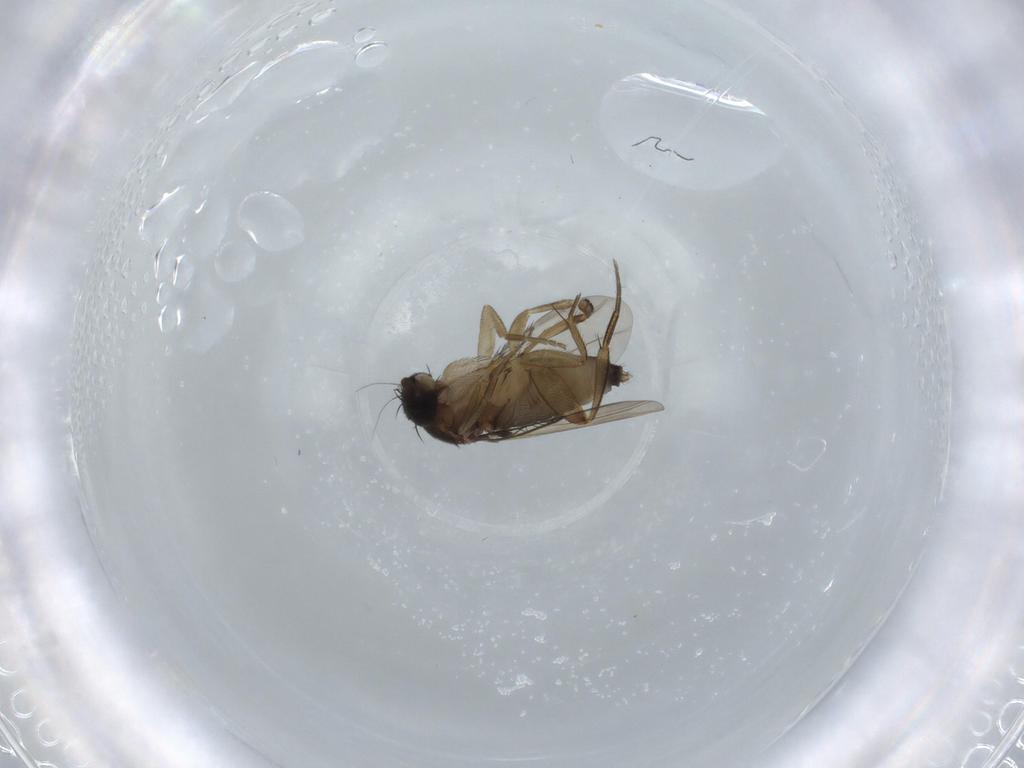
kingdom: Animalia
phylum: Arthropoda
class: Insecta
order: Diptera
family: Phoridae
